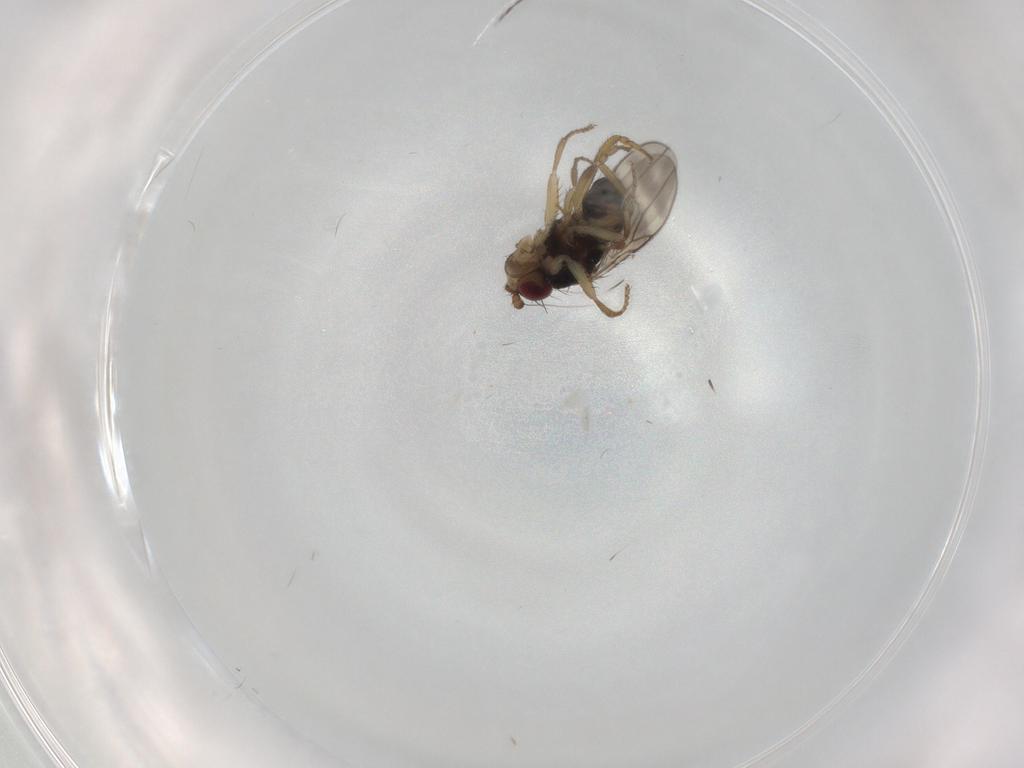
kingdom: Animalia
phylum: Arthropoda
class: Insecta
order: Diptera
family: Sphaeroceridae
